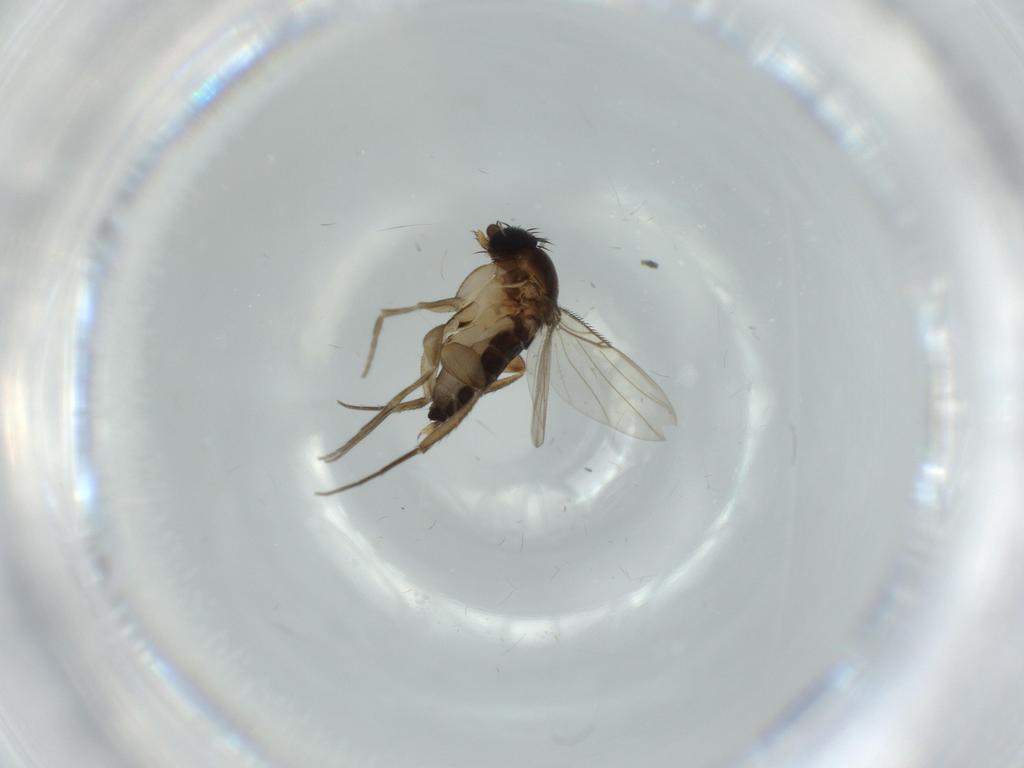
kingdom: Animalia
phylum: Arthropoda
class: Insecta
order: Diptera
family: Phoridae
